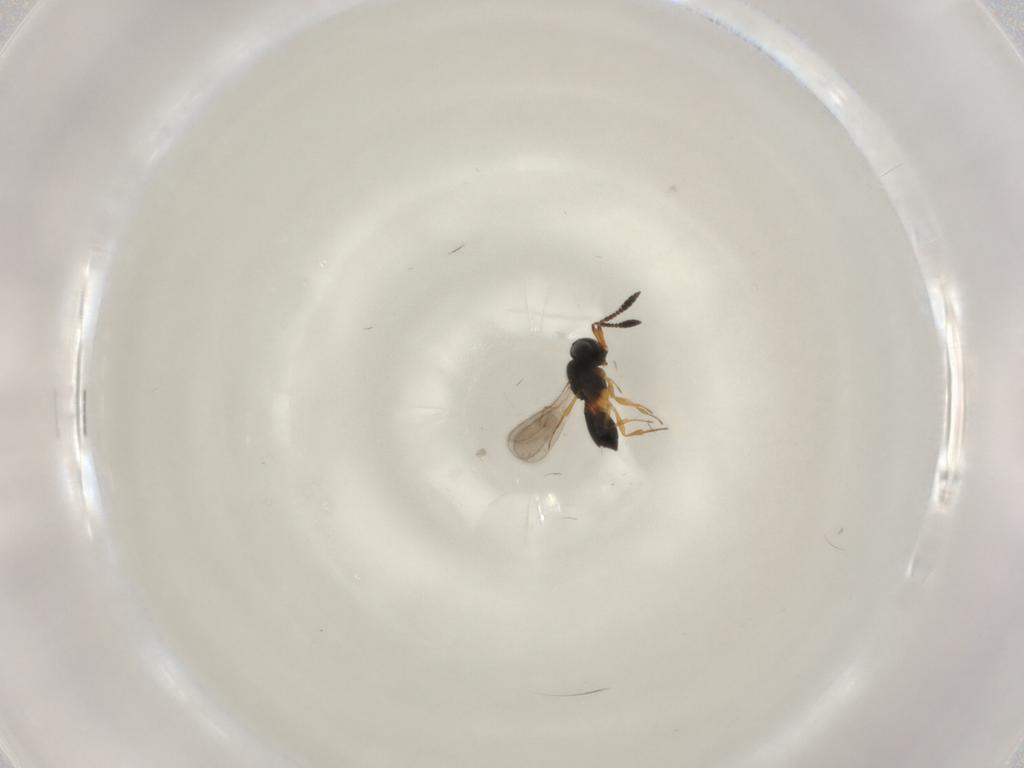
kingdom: Animalia
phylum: Arthropoda
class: Insecta
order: Hymenoptera
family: Scelionidae
